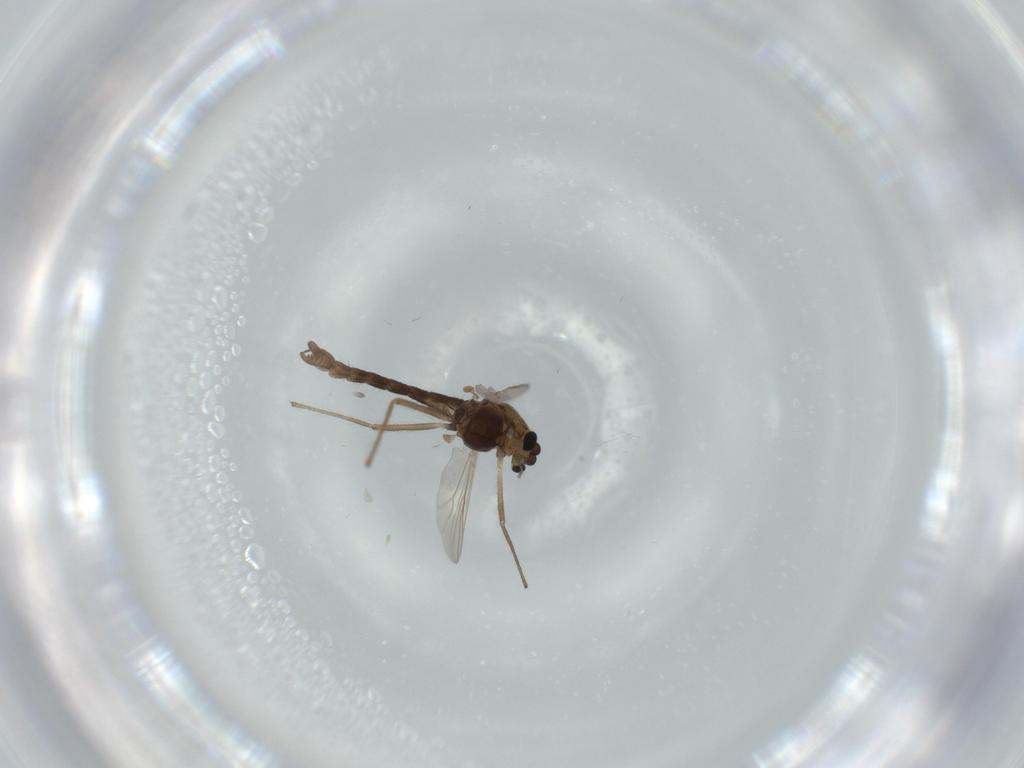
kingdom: Animalia
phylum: Arthropoda
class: Insecta
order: Diptera
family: Chironomidae
